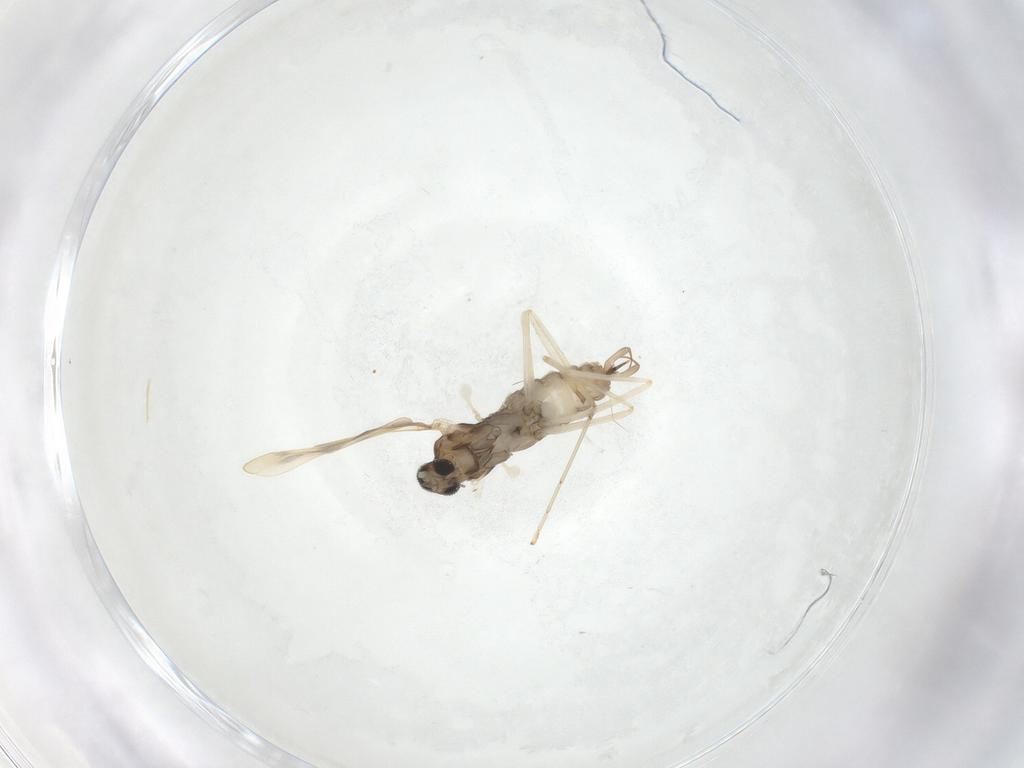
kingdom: Animalia
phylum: Arthropoda
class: Insecta
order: Diptera
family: Cecidomyiidae
